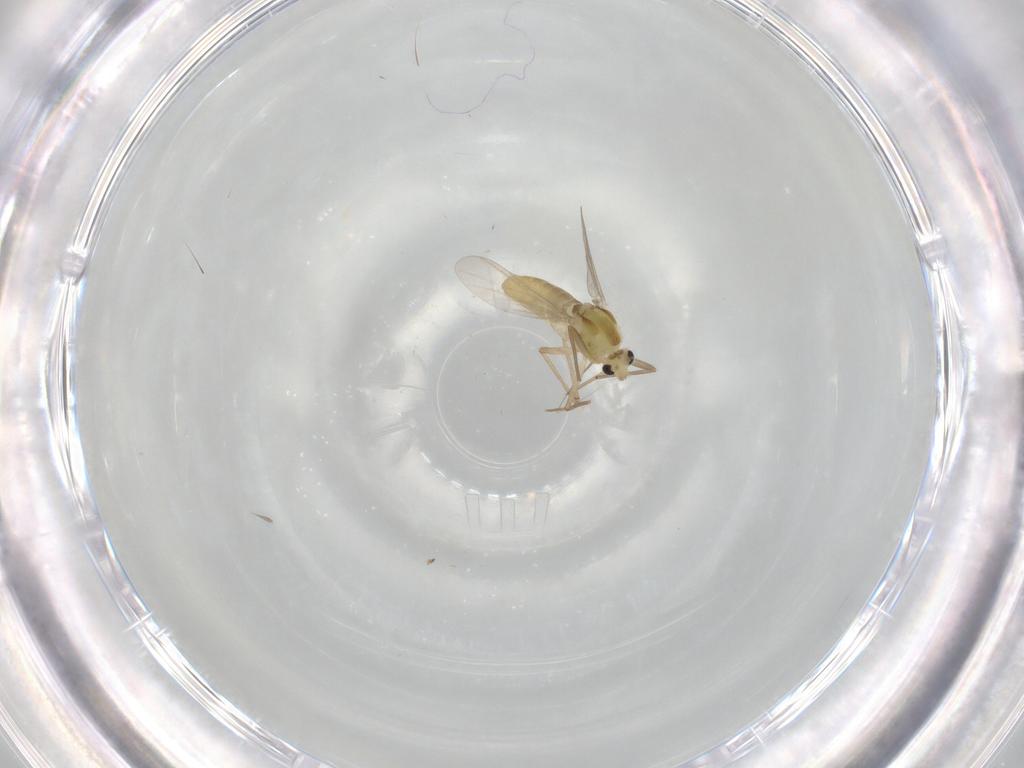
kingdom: Animalia
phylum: Arthropoda
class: Insecta
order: Diptera
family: Chironomidae
